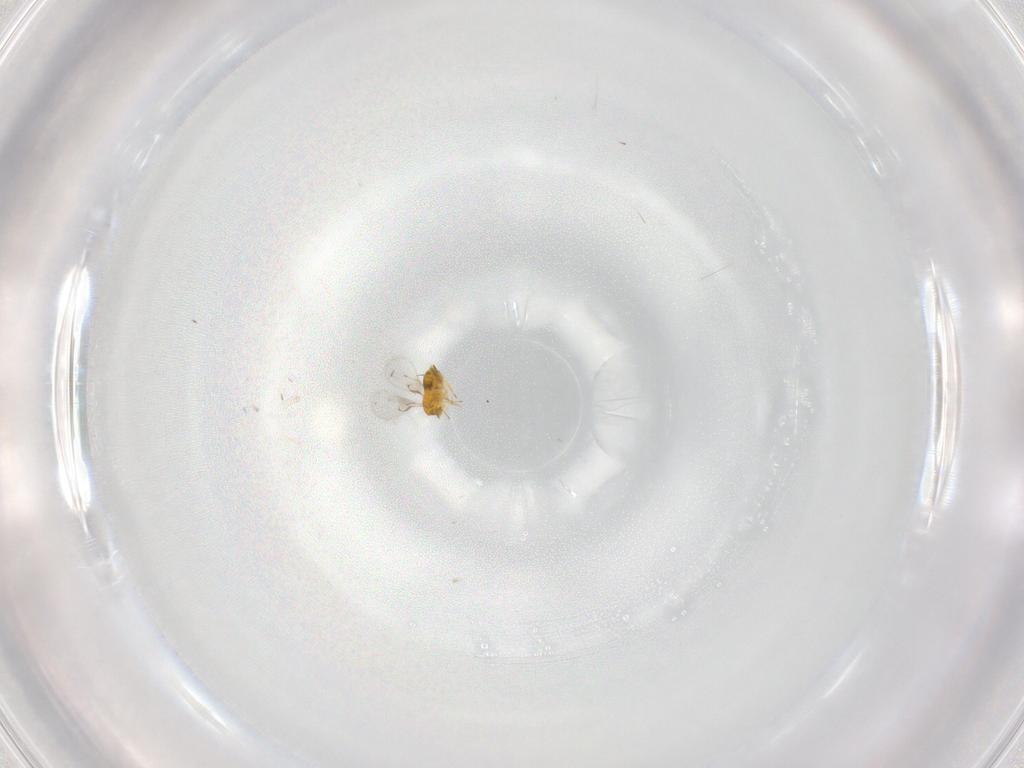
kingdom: Animalia
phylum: Arthropoda
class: Insecta
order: Hymenoptera
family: Trichogrammatidae
